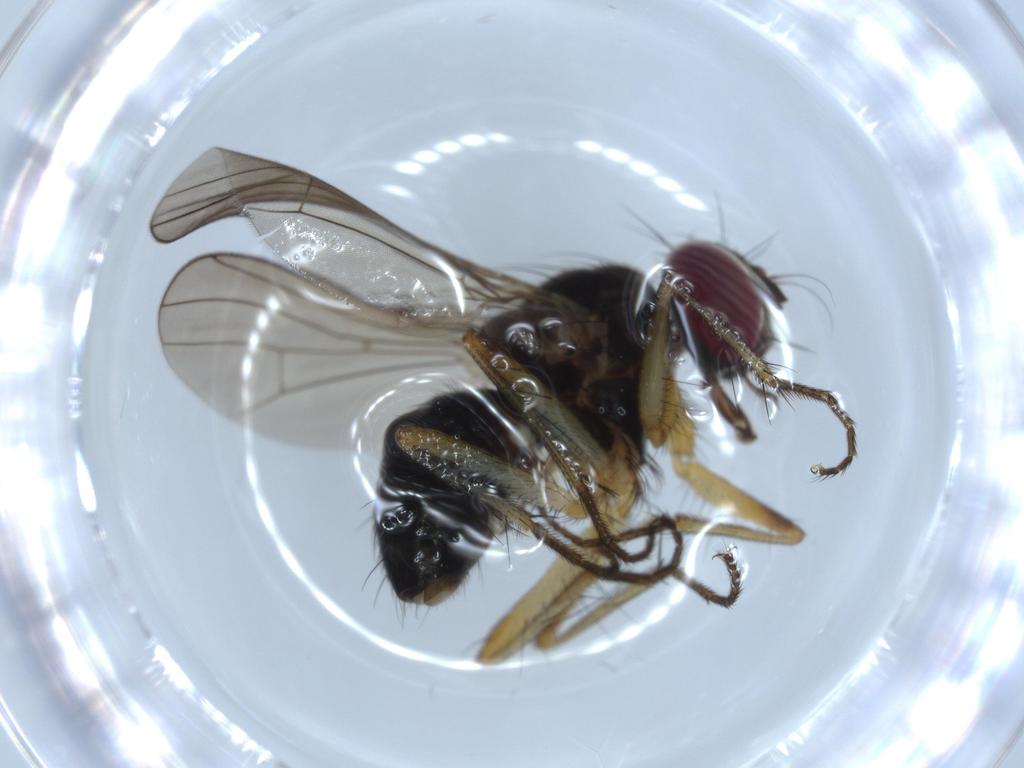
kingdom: Animalia
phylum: Arthropoda
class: Insecta
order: Diptera
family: Muscidae
